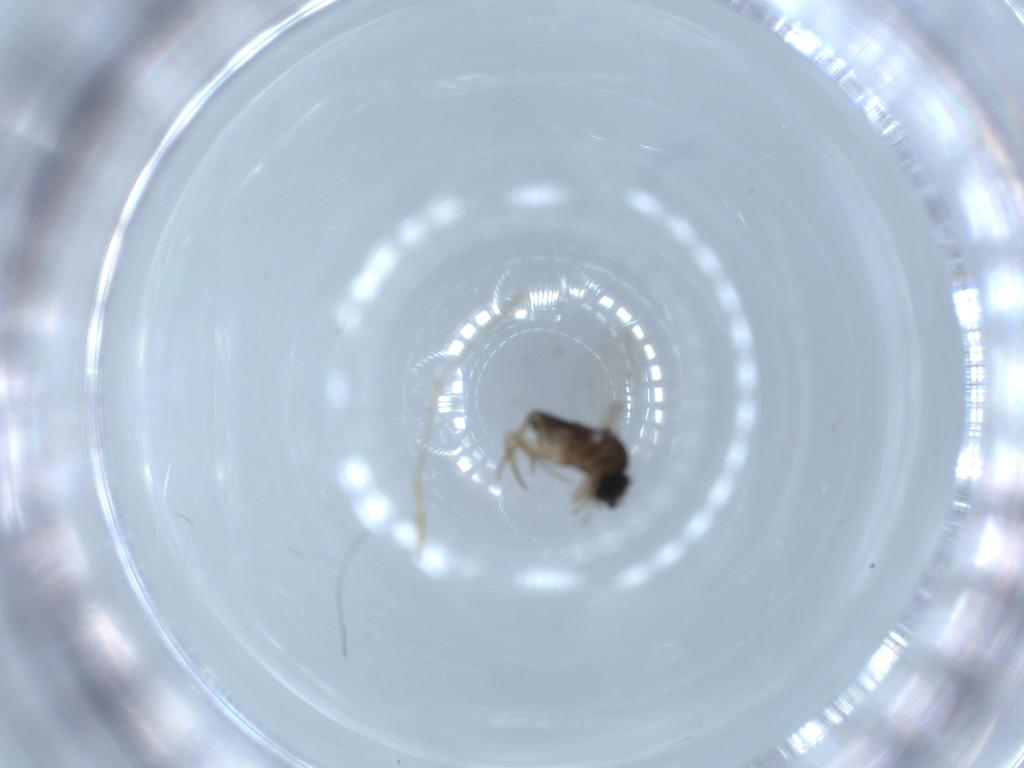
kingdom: Animalia
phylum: Arthropoda
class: Insecta
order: Diptera
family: Psychodidae
